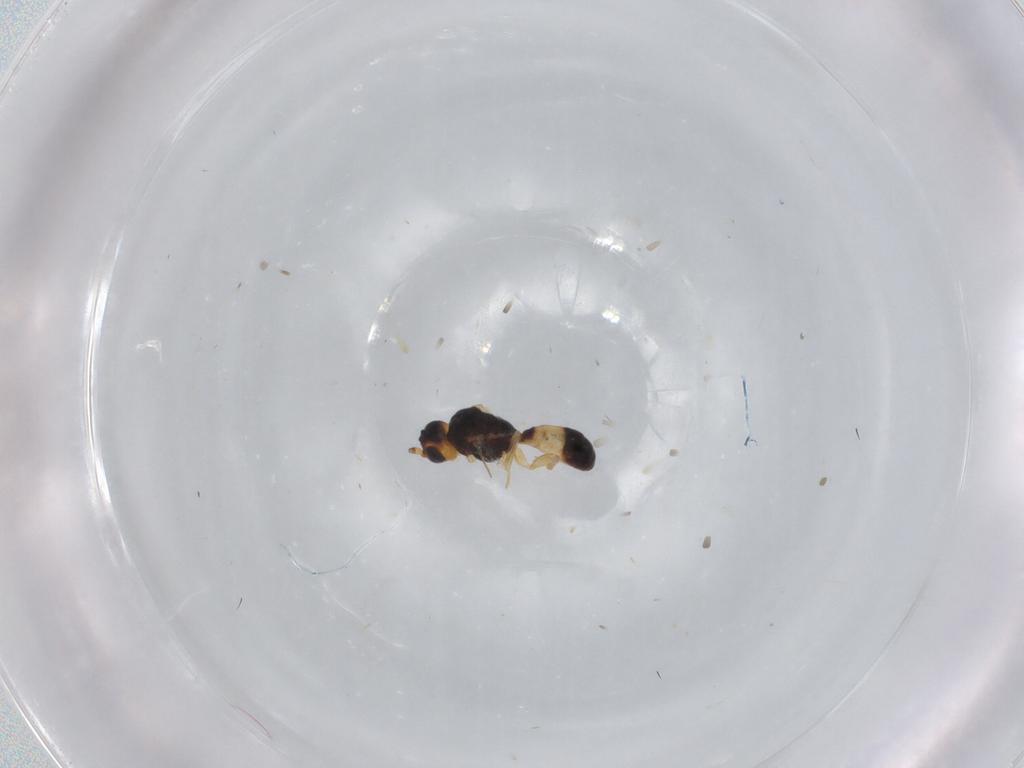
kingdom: Animalia
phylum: Arthropoda
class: Insecta
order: Hymenoptera
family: Braconidae
